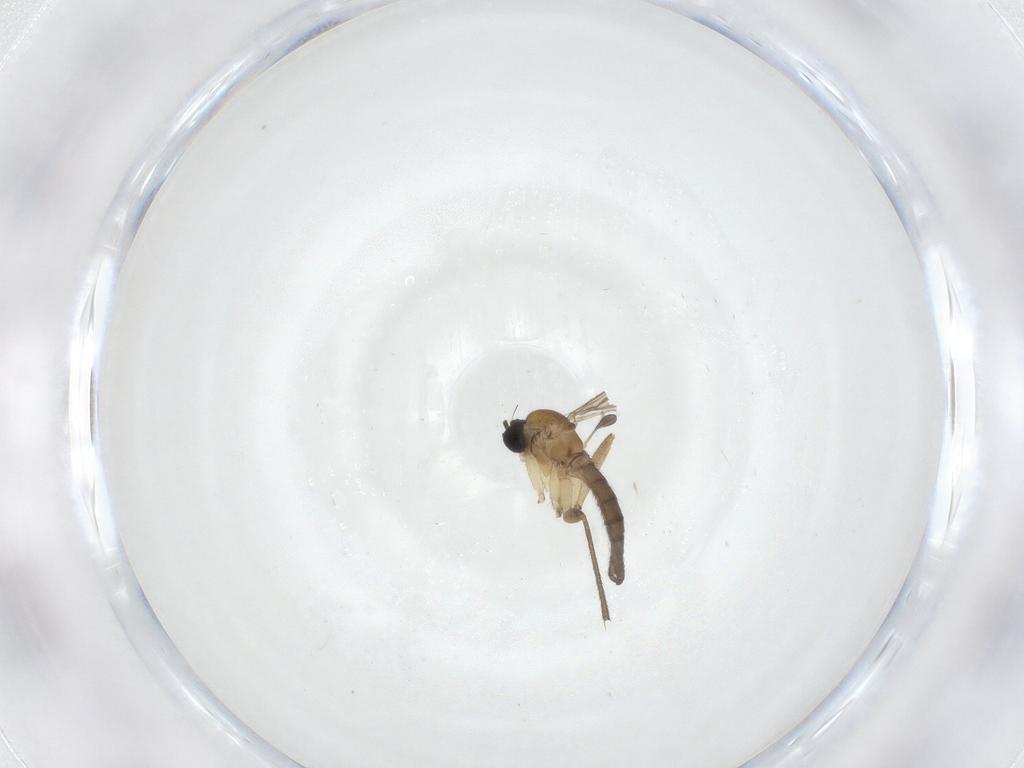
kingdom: Animalia
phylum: Arthropoda
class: Insecta
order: Diptera
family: Sciaridae
